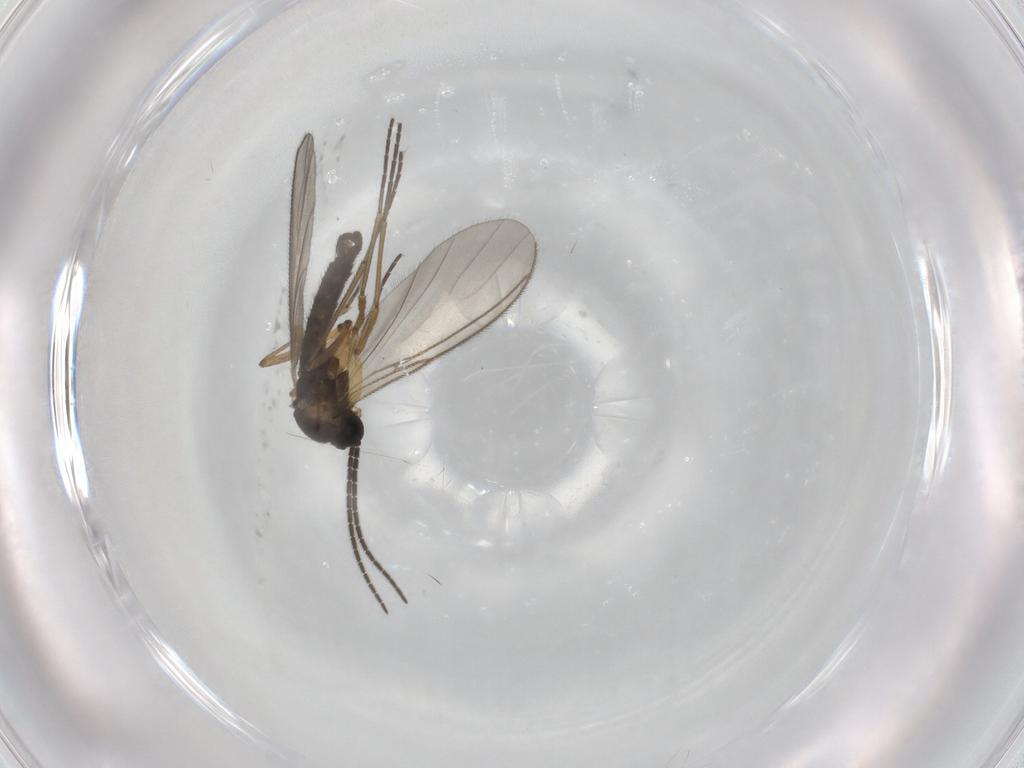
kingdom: Animalia
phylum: Arthropoda
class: Insecta
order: Diptera
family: Sciaridae
